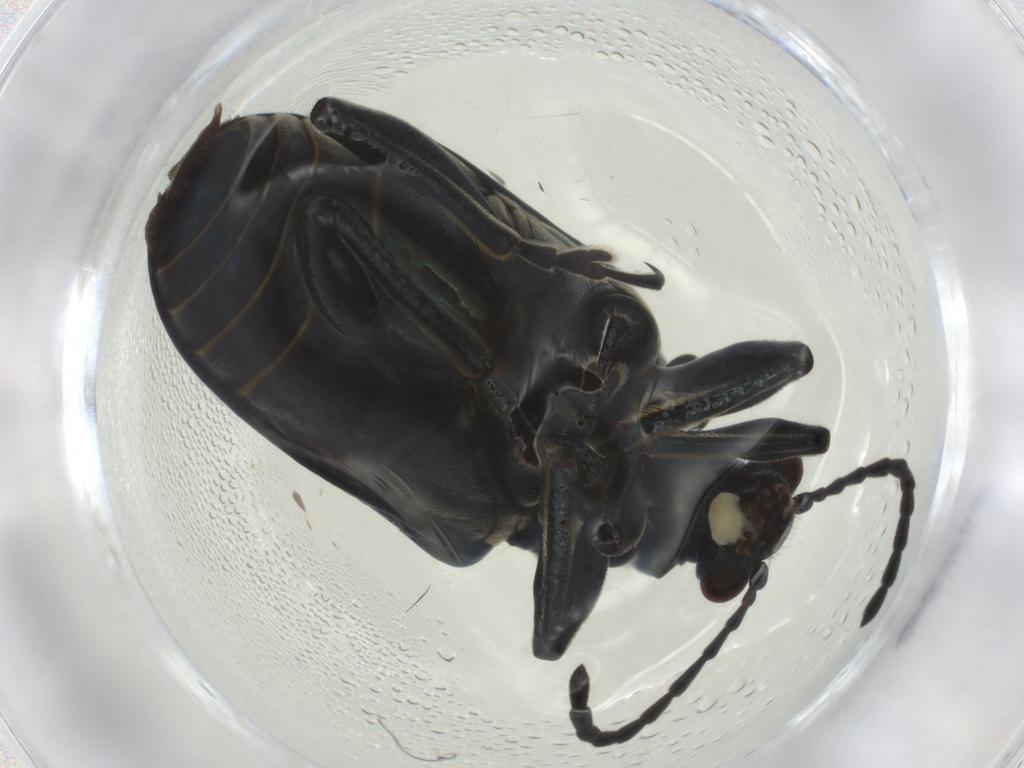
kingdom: Animalia
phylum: Arthropoda
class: Insecta
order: Coleoptera
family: Chrysomelidae
